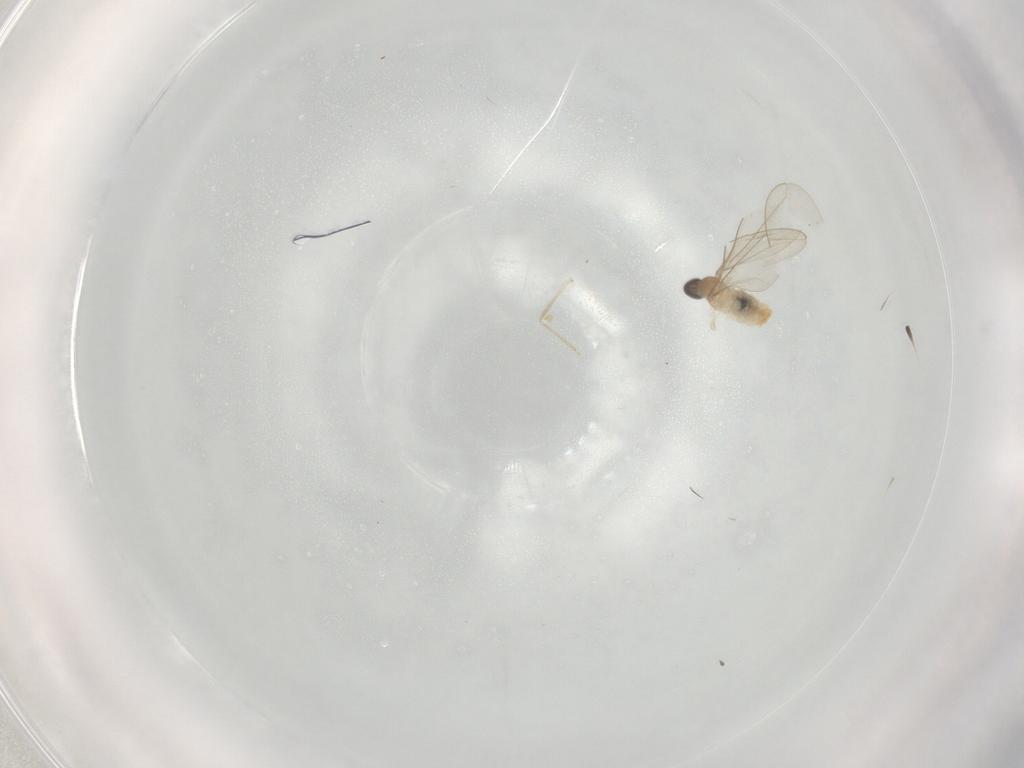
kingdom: Animalia
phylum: Arthropoda
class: Insecta
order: Diptera
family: Cecidomyiidae
